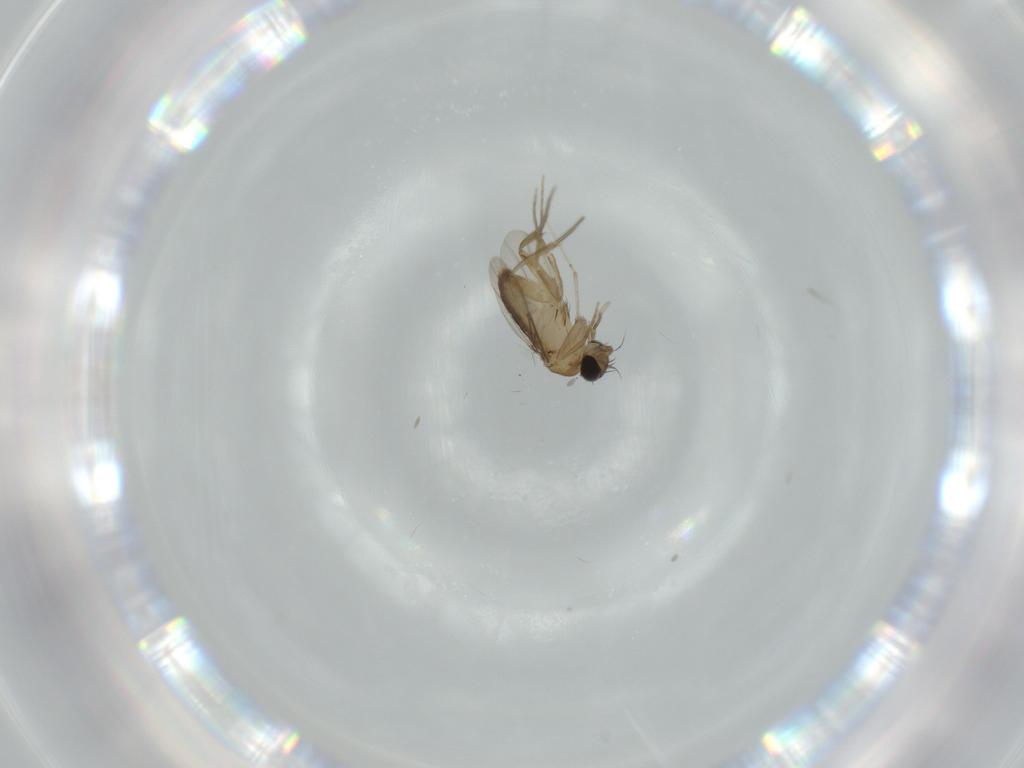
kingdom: Animalia
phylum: Arthropoda
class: Insecta
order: Diptera
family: Phoridae
